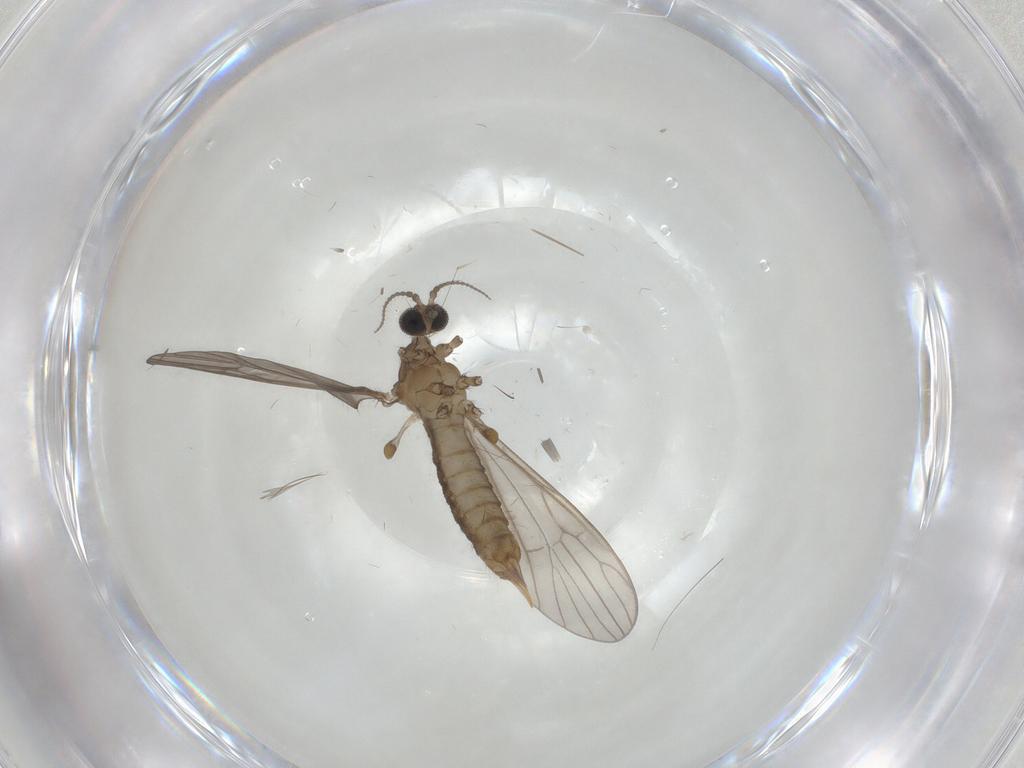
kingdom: Animalia
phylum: Arthropoda
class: Insecta
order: Diptera
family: Limoniidae
